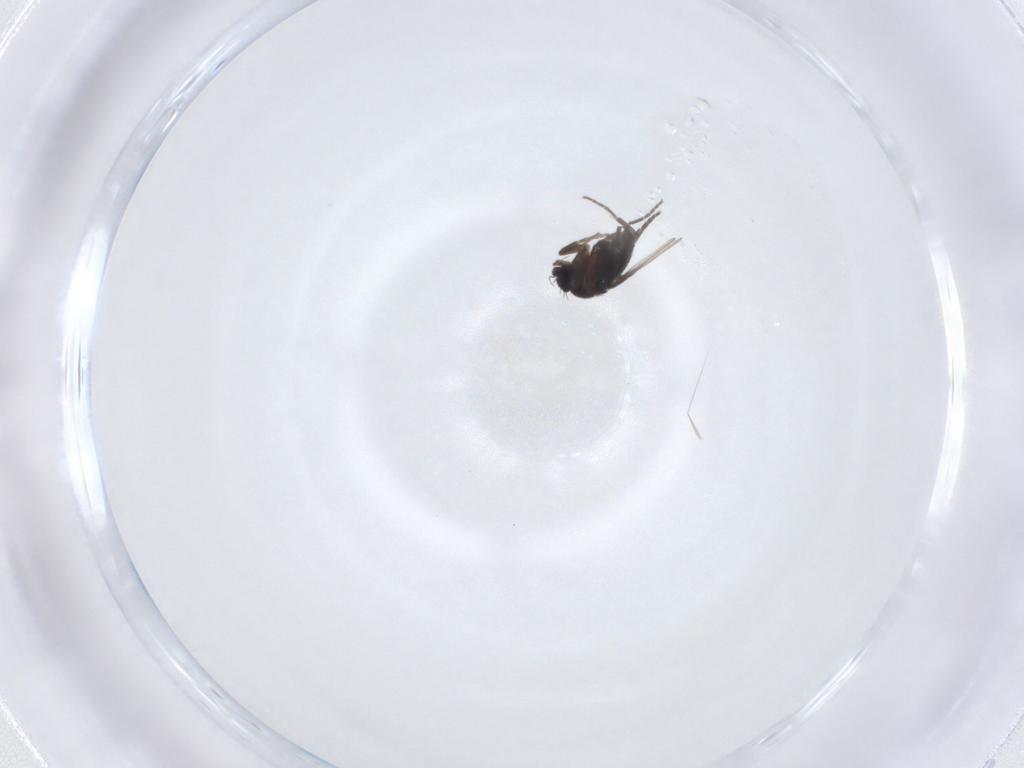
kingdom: Animalia
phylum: Arthropoda
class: Insecta
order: Diptera
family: Phoridae
